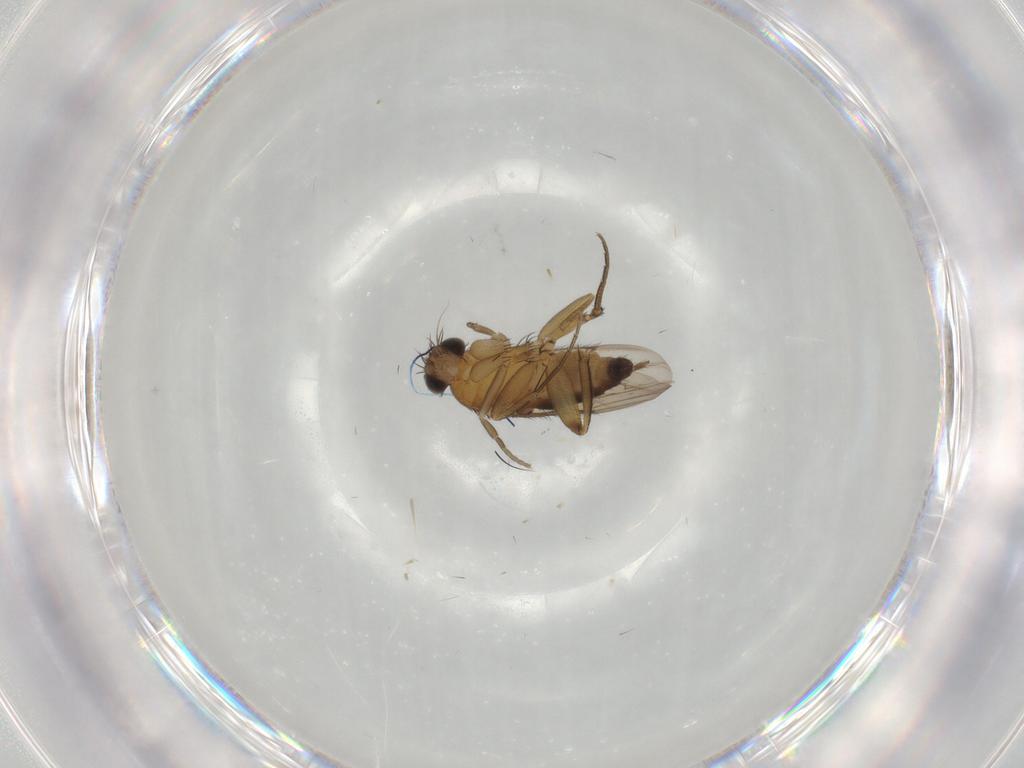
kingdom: Animalia
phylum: Arthropoda
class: Insecta
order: Diptera
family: Phoridae
